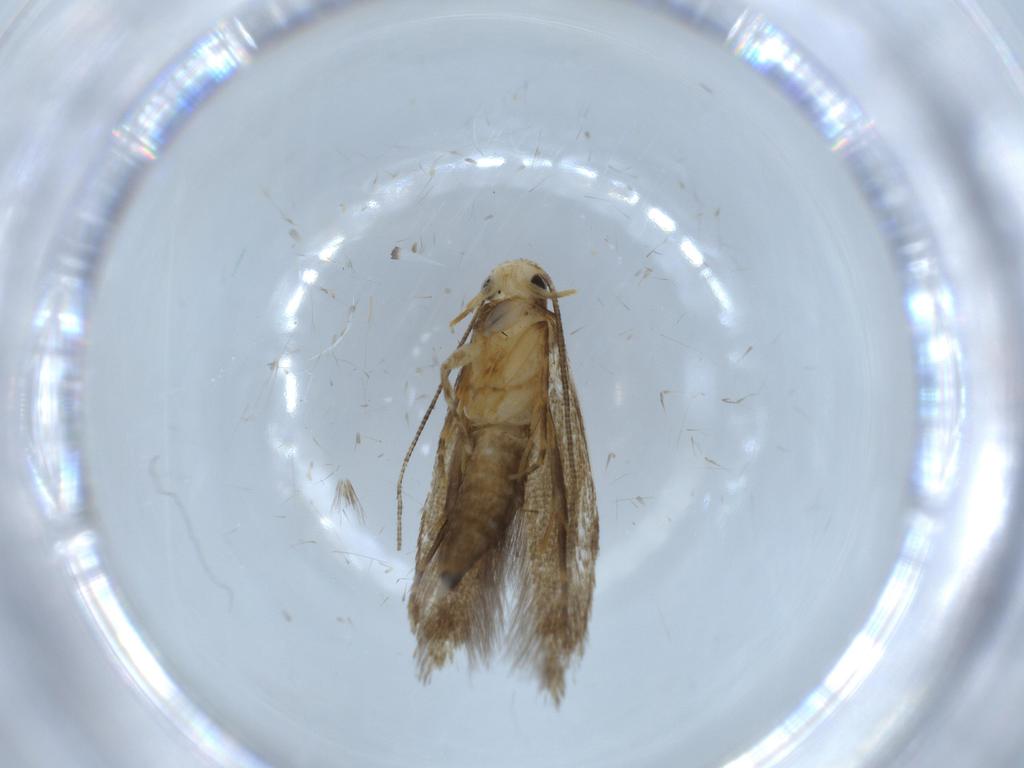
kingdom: Animalia
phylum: Arthropoda
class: Insecta
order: Lepidoptera
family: Tineidae
